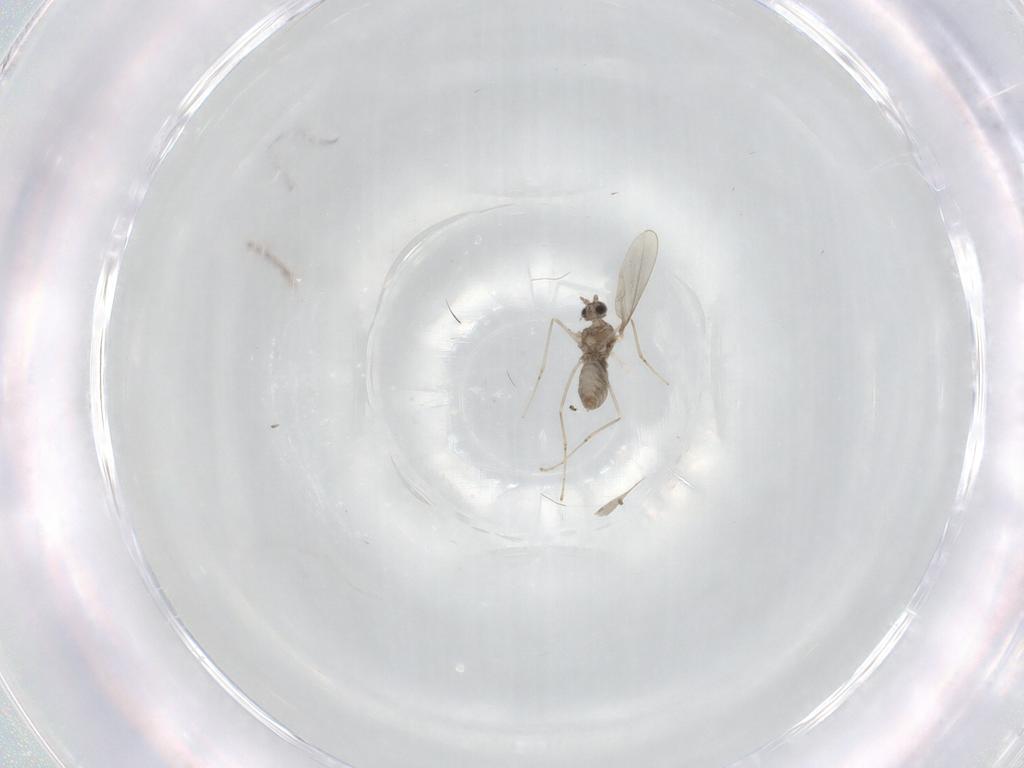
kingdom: Animalia
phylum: Arthropoda
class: Insecta
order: Diptera
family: Cecidomyiidae
